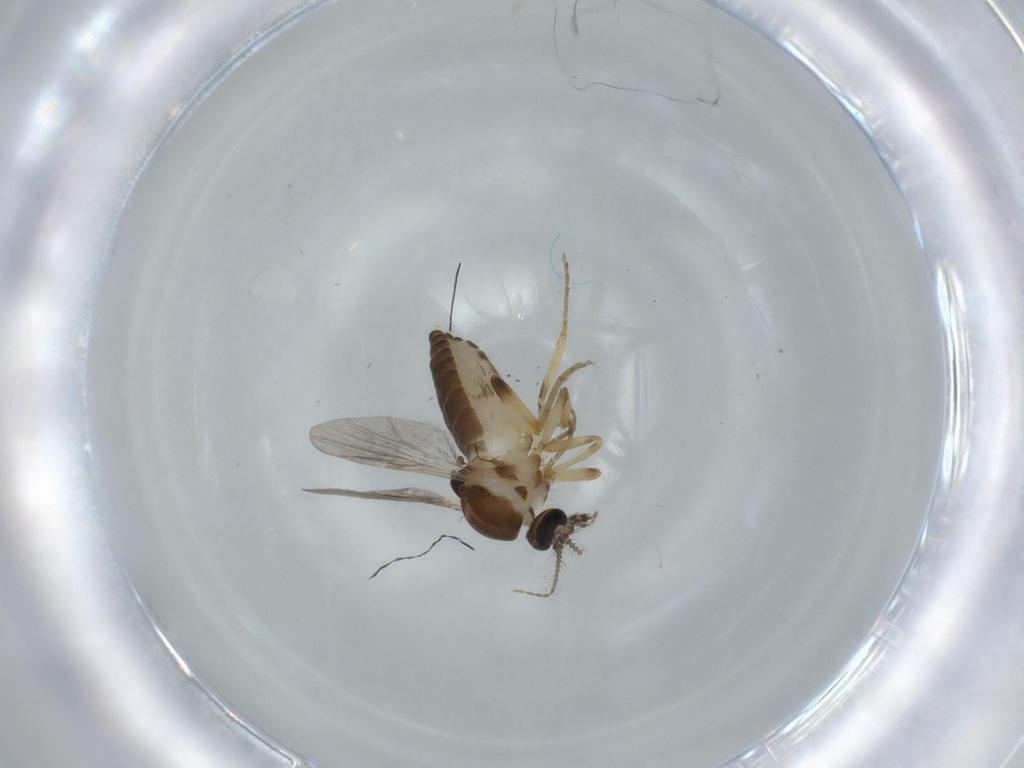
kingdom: Animalia
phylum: Arthropoda
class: Insecta
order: Diptera
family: Ceratopogonidae
